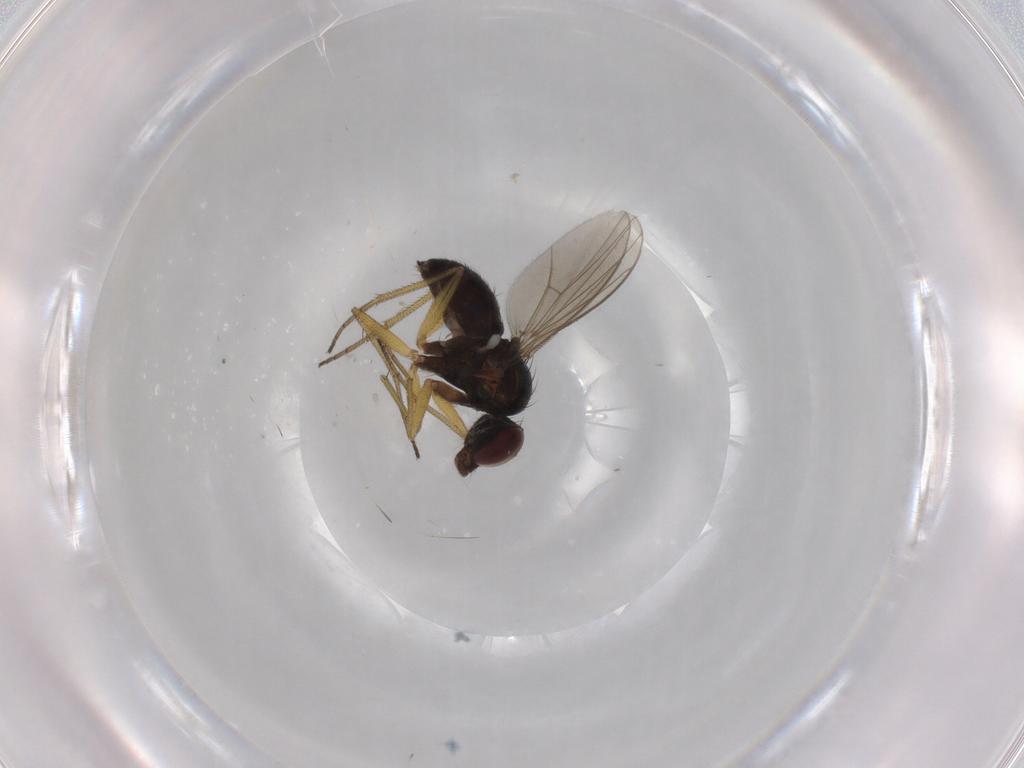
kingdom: Animalia
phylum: Arthropoda
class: Insecta
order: Diptera
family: Dolichopodidae
